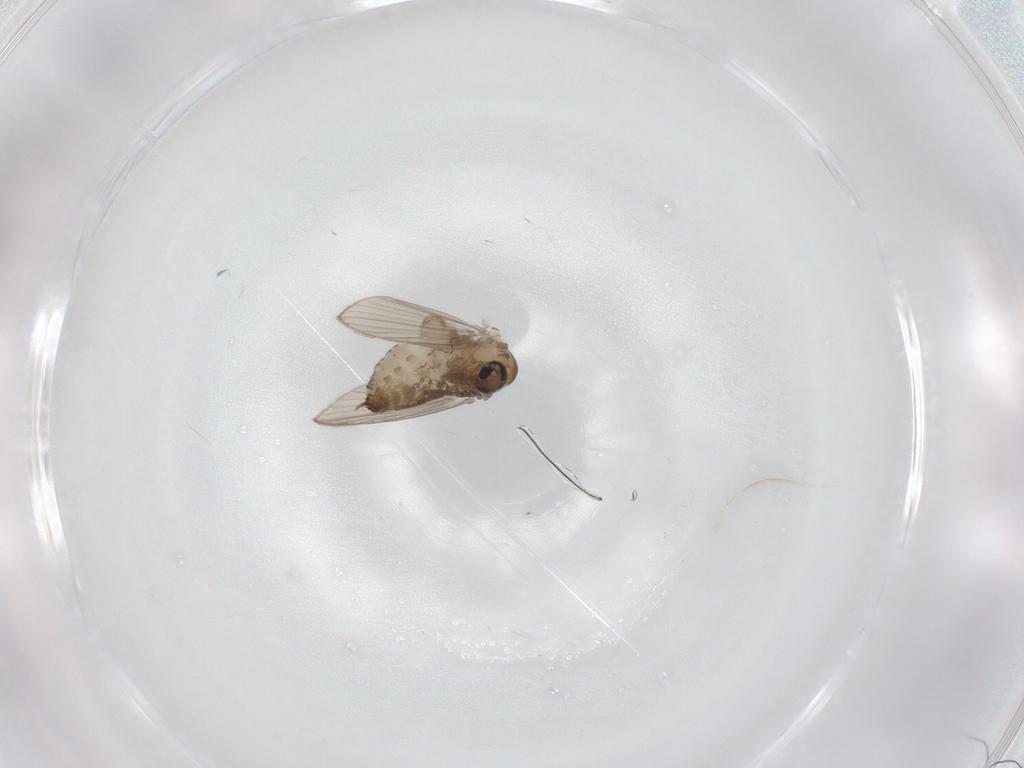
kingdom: Animalia
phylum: Arthropoda
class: Insecta
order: Diptera
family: Psychodidae
